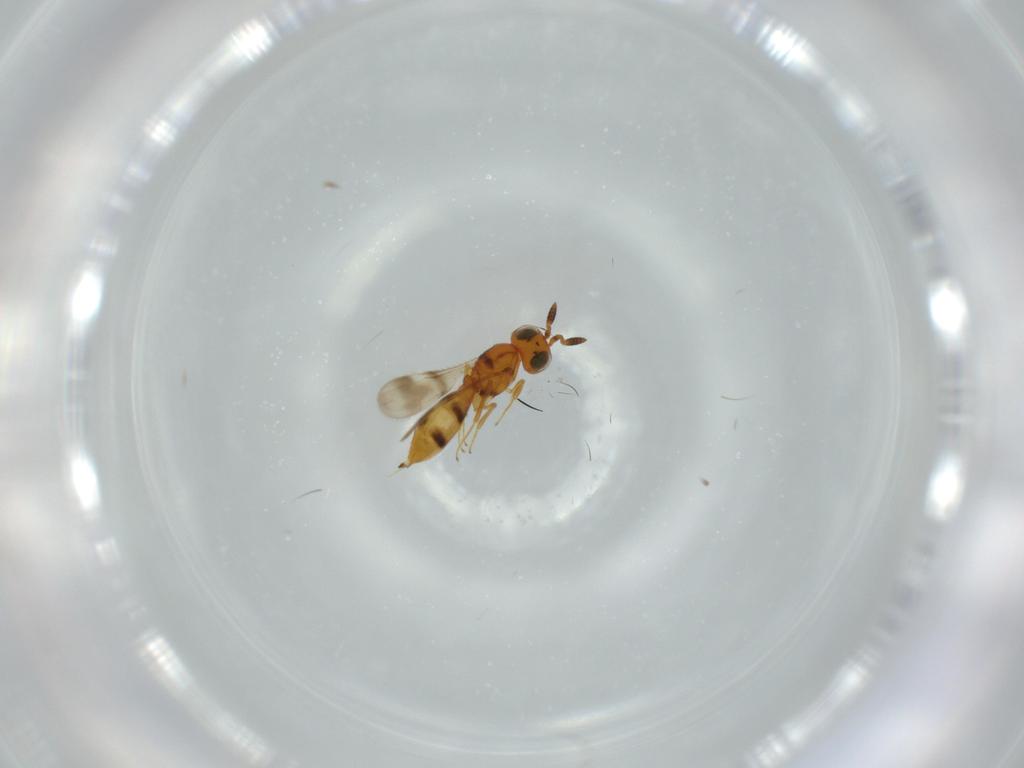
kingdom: Animalia
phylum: Arthropoda
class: Insecta
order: Hymenoptera
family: Scelionidae
